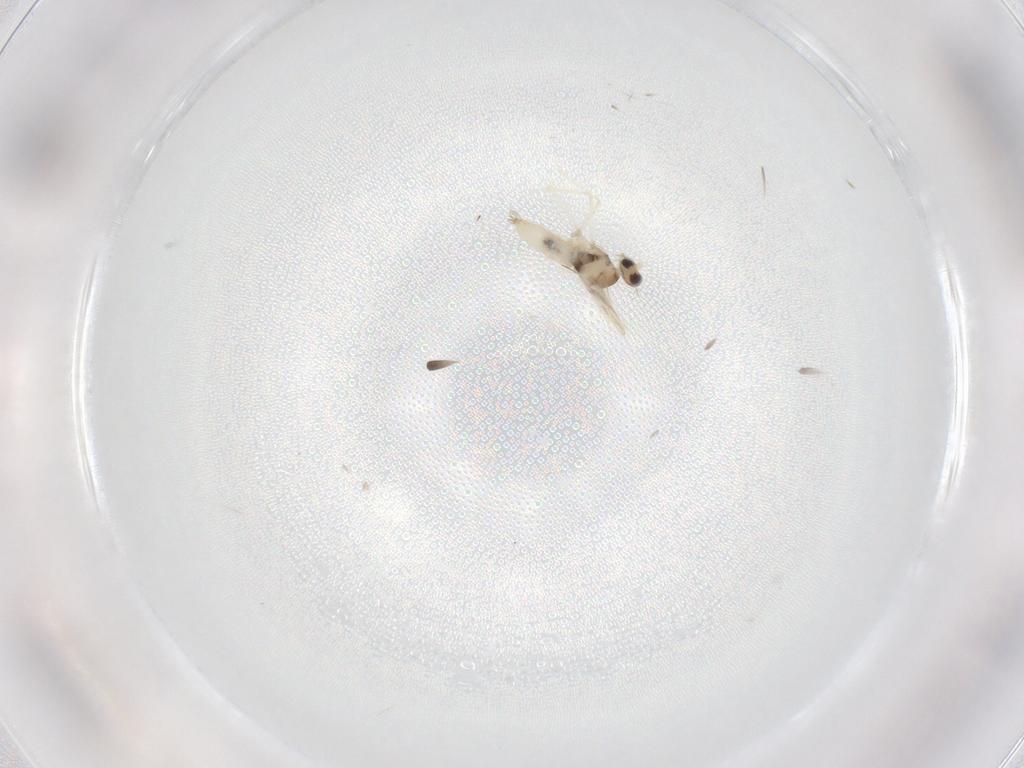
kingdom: Animalia
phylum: Arthropoda
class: Insecta
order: Diptera
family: Cecidomyiidae
